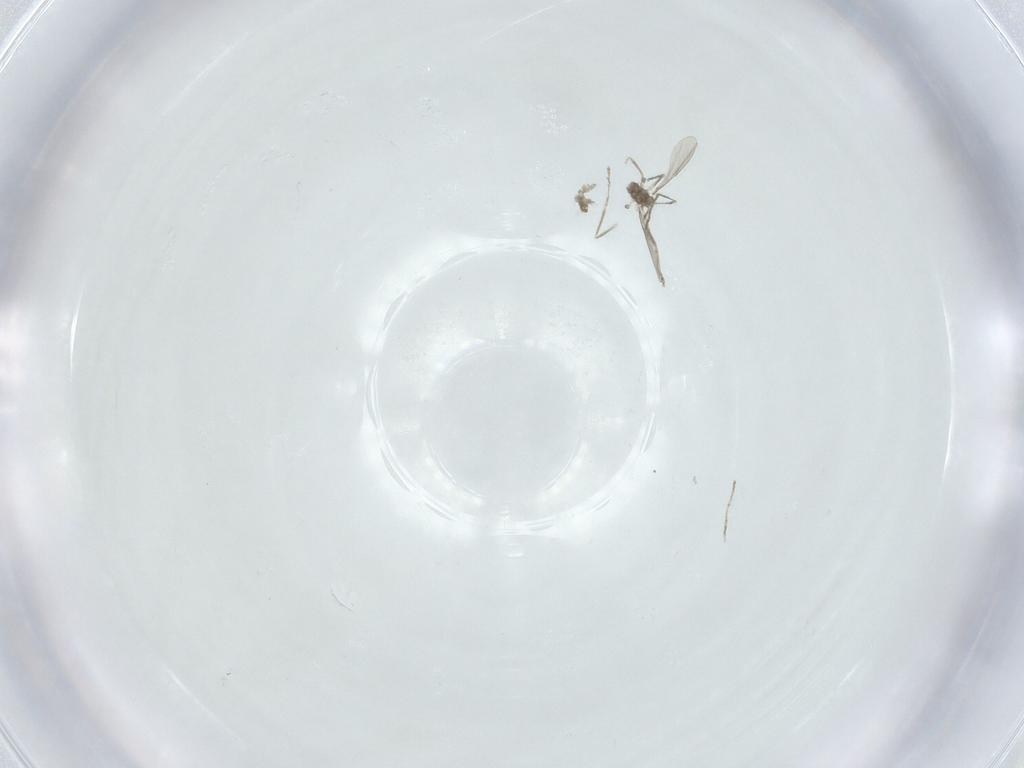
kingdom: Animalia
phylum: Arthropoda
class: Insecta
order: Diptera
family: Cecidomyiidae
